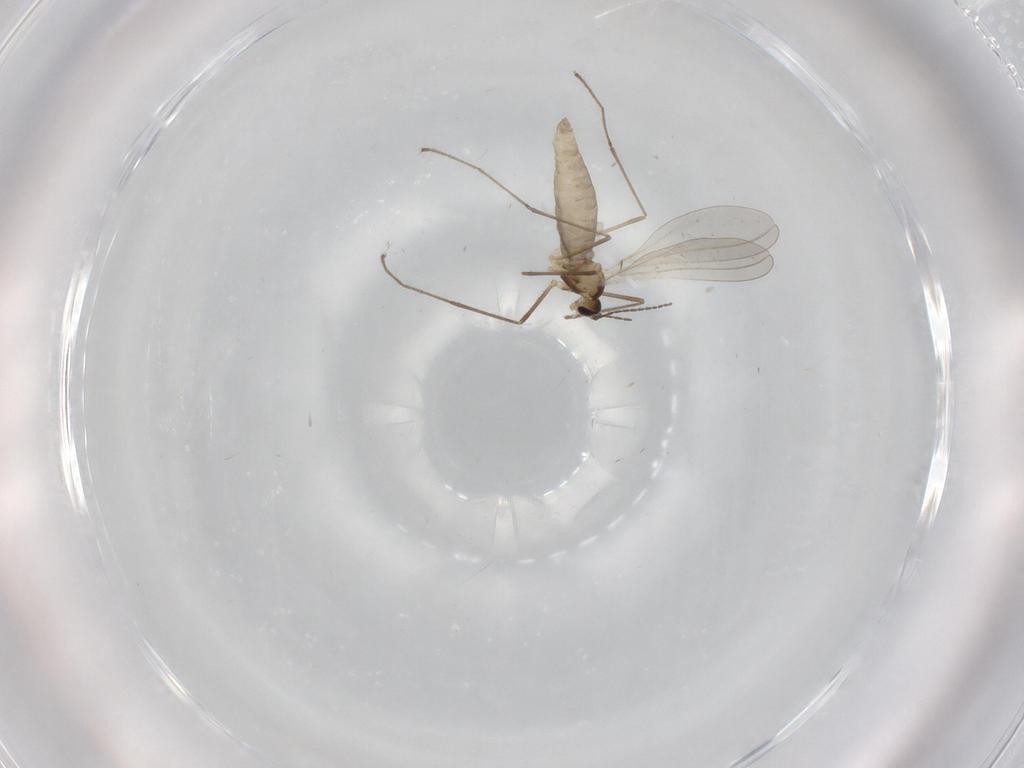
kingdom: Animalia
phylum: Arthropoda
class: Insecta
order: Diptera
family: Cecidomyiidae
